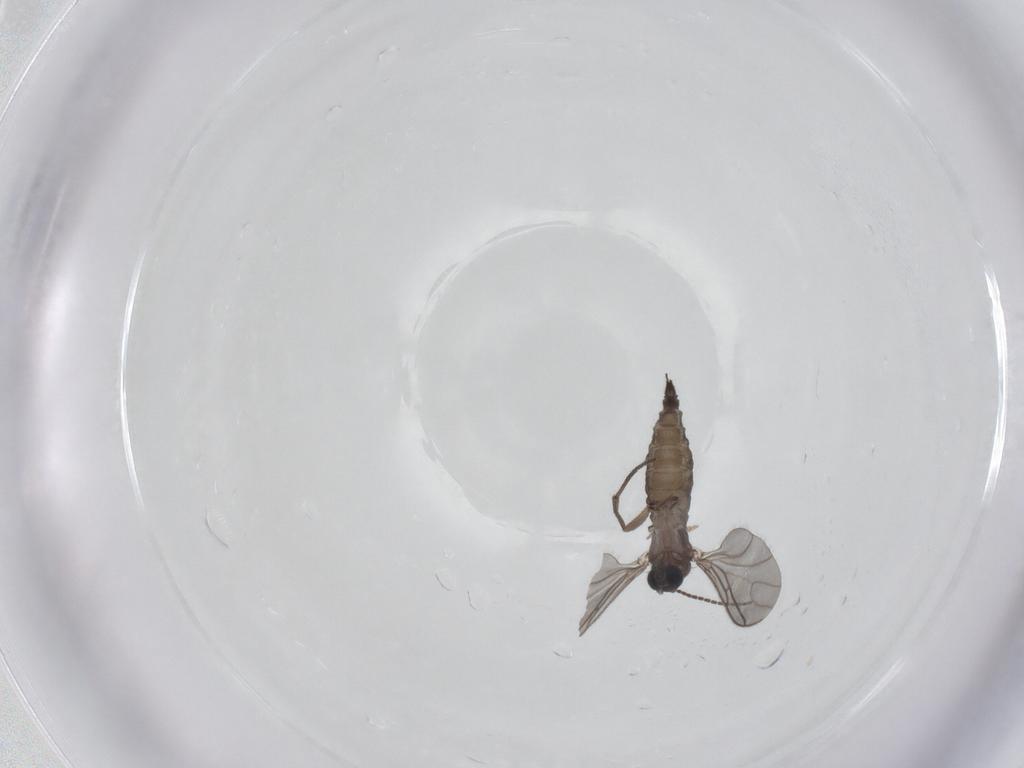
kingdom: Animalia
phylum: Arthropoda
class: Insecta
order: Diptera
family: Sciaridae
